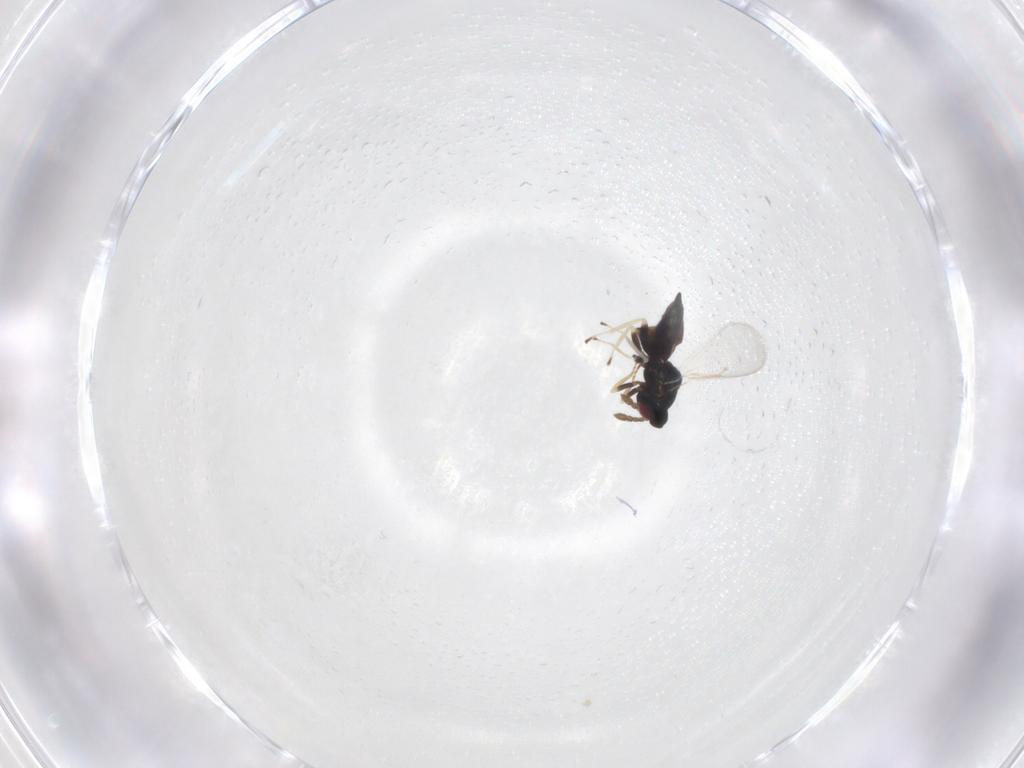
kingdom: Animalia
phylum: Arthropoda
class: Insecta
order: Hymenoptera
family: Eulophidae
